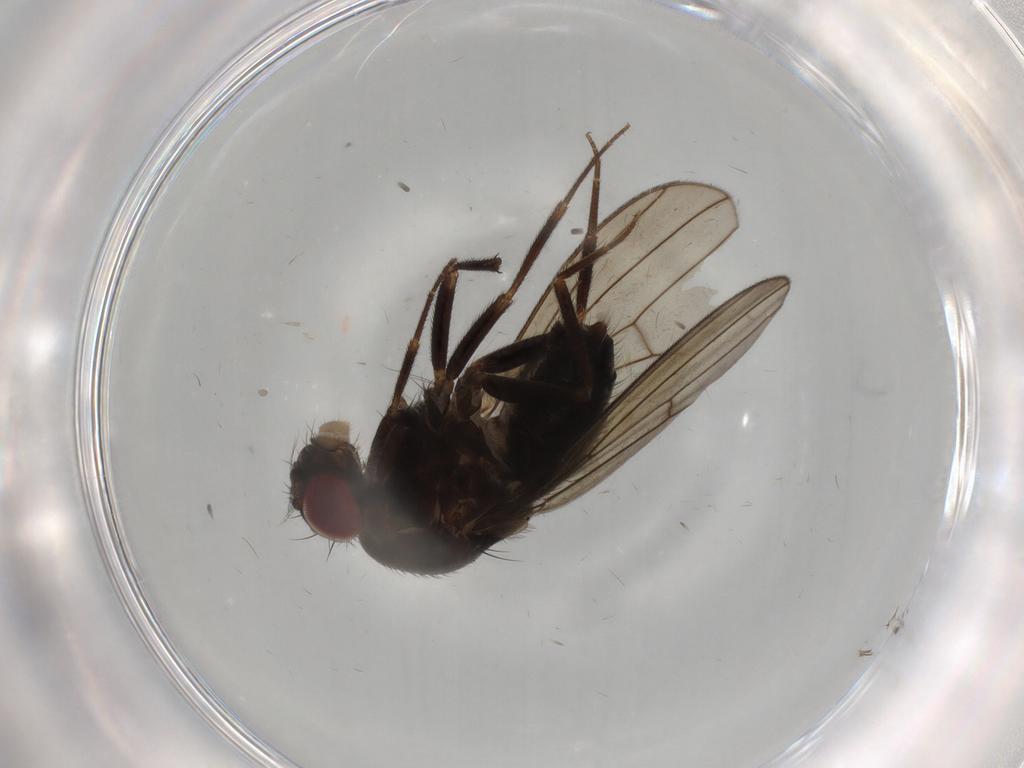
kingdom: Animalia
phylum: Arthropoda
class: Insecta
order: Diptera
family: Drosophilidae
